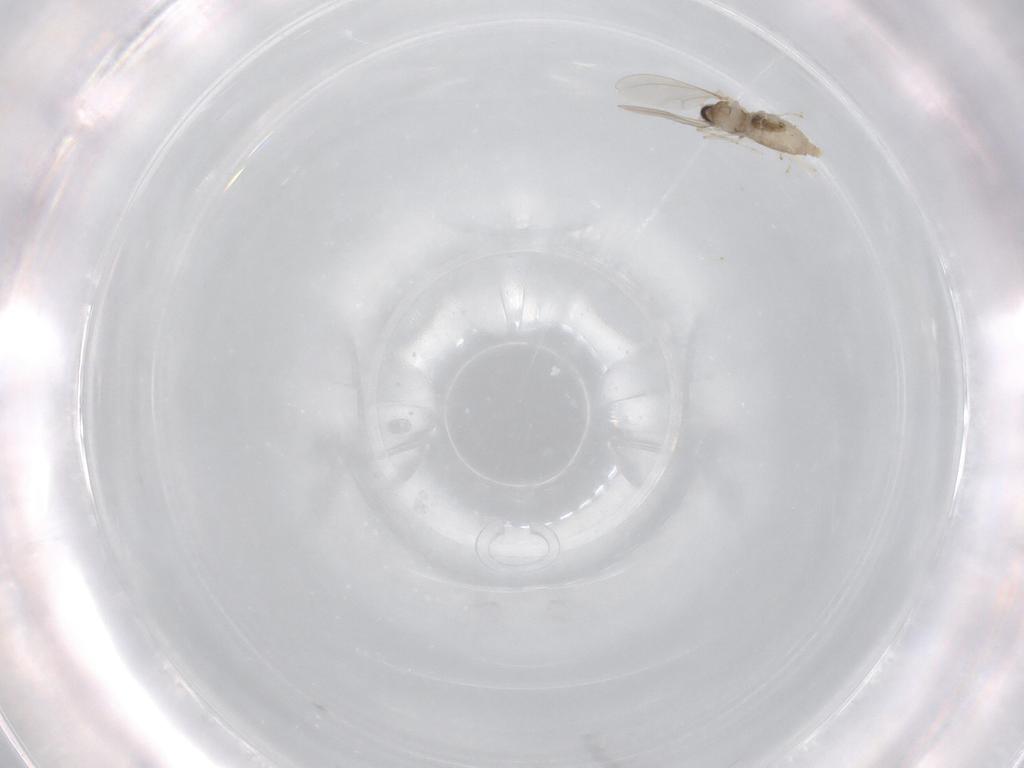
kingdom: Animalia
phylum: Arthropoda
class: Insecta
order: Diptera
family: Cecidomyiidae
